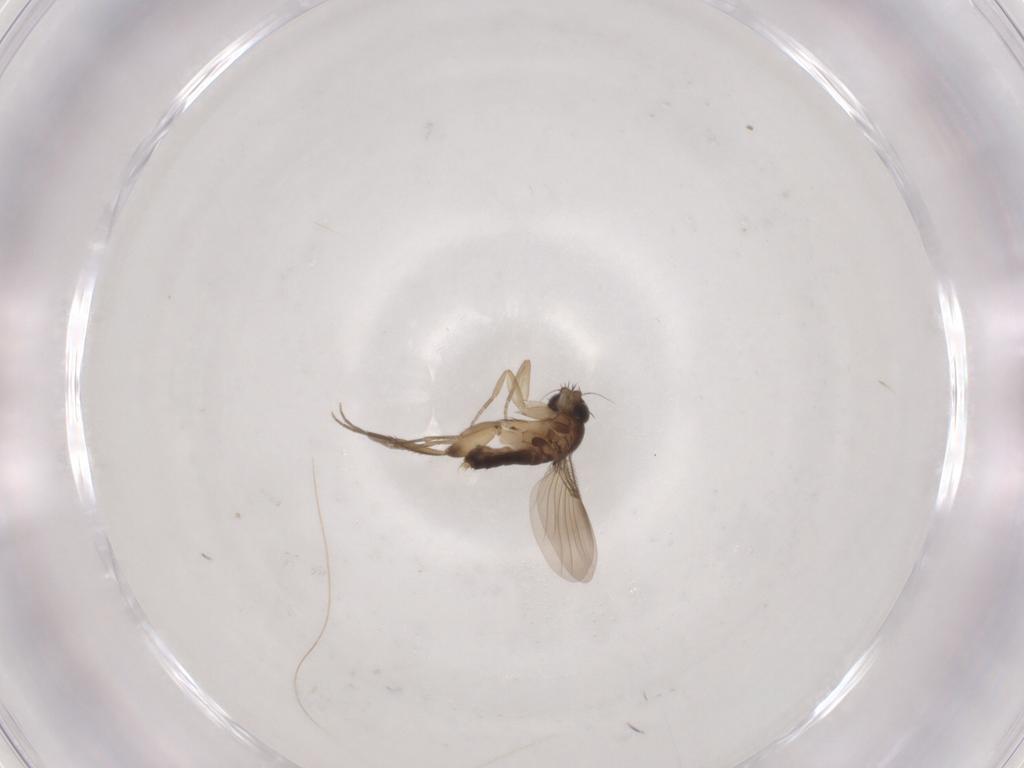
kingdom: Animalia
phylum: Arthropoda
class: Insecta
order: Diptera
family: Phoridae
